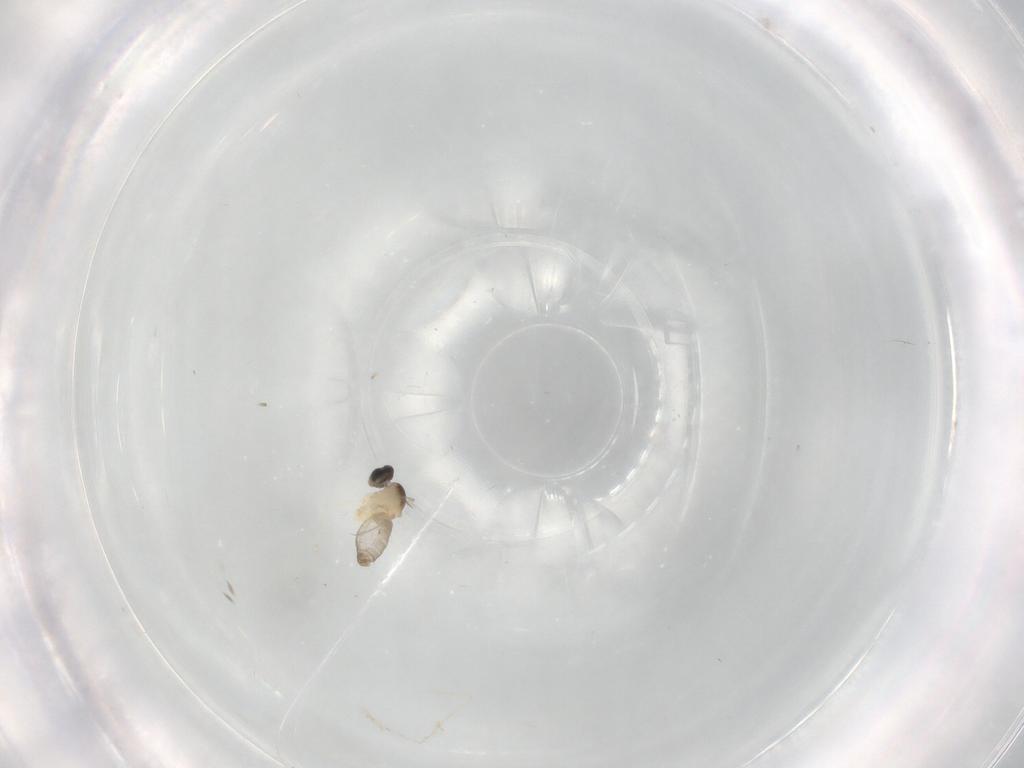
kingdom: Animalia
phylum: Arthropoda
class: Insecta
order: Diptera
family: Cecidomyiidae
